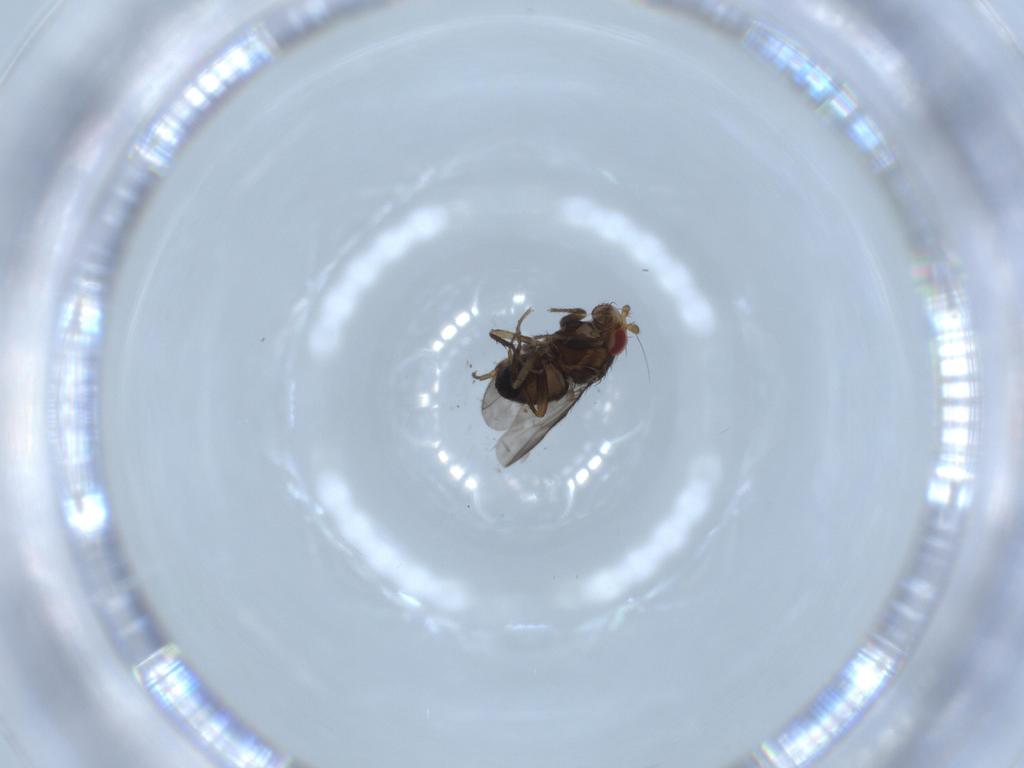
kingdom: Animalia
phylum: Arthropoda
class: Insecta
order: Diptera
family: Sphaeroceridae
